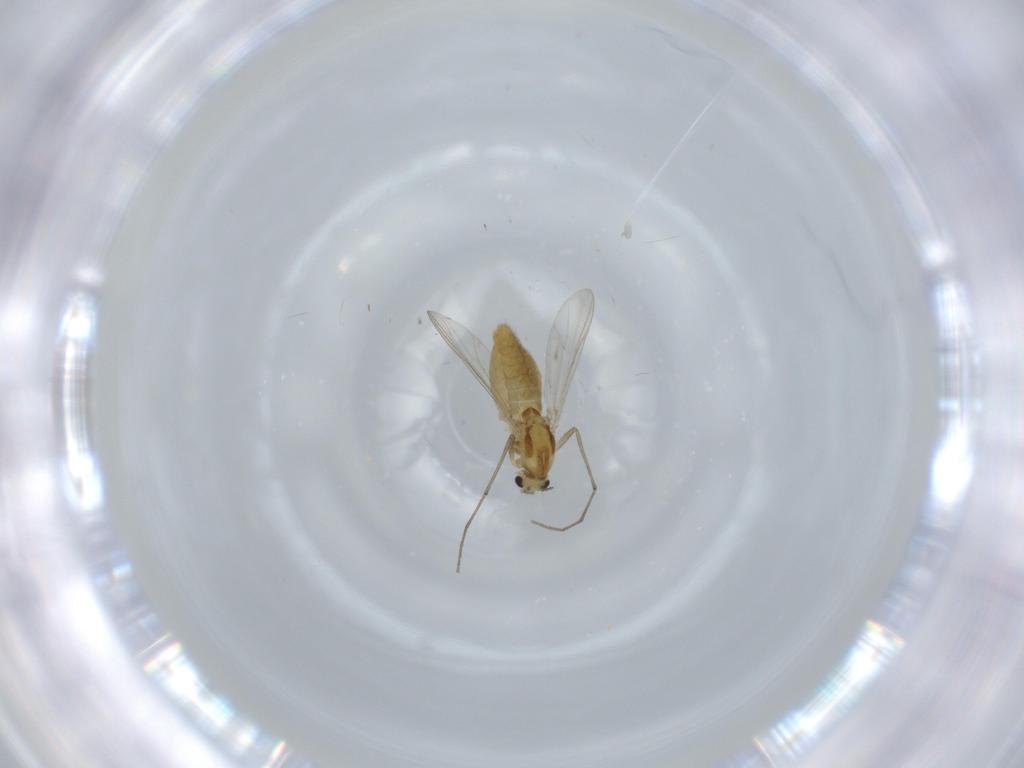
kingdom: Animalia
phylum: Arthropoda
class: Insecta
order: Diptera
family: Chironomidae
